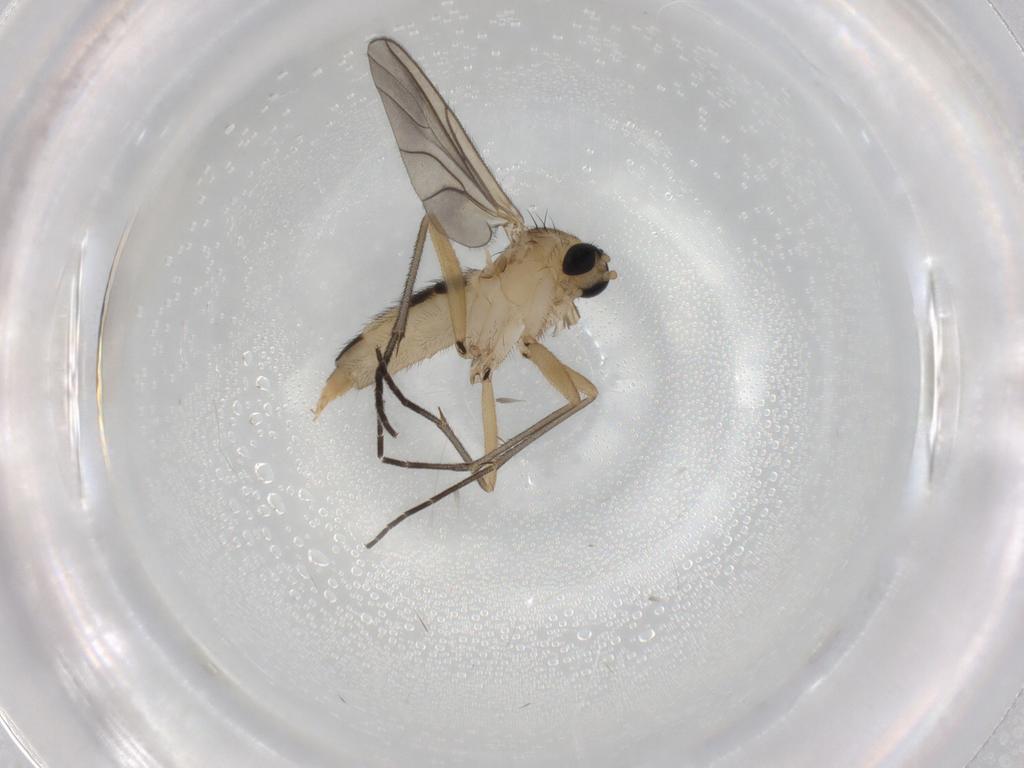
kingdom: Animalia
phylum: Arthropoda
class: Insecta
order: Diptera
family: Sciaridae
